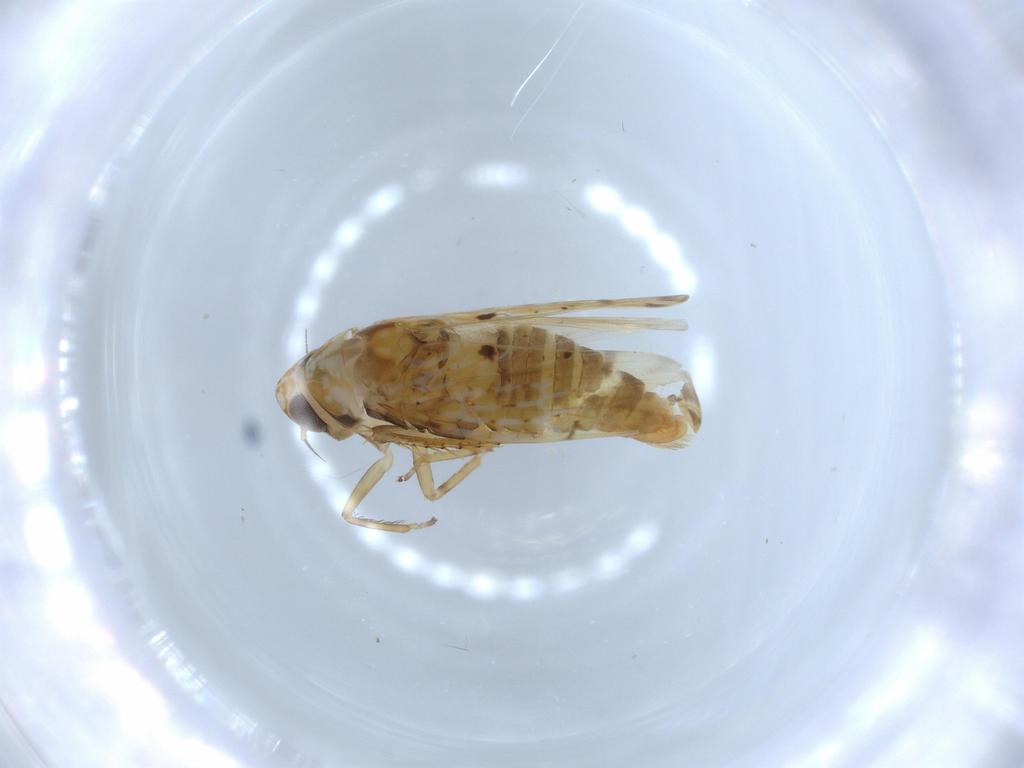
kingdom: Animalia
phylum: Arthropoda
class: Insecta
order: Hemiptera
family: Cicadellidae
